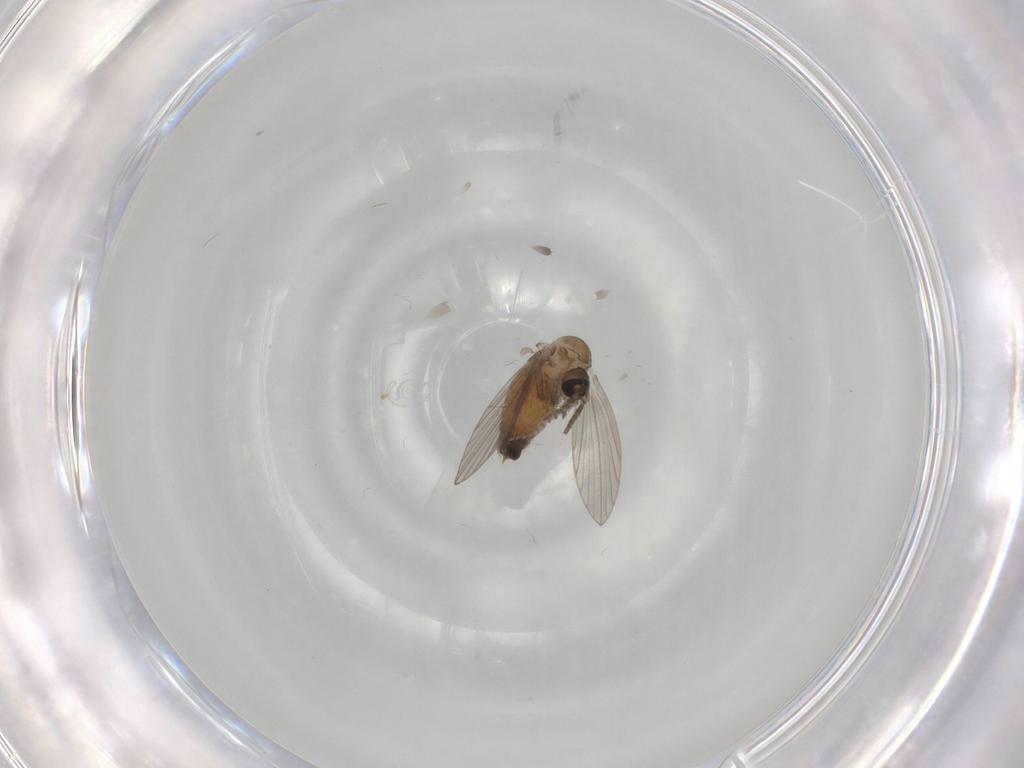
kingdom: Animalia
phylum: Arthropoda
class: Insecta
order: Diptera
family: Psychodidae
